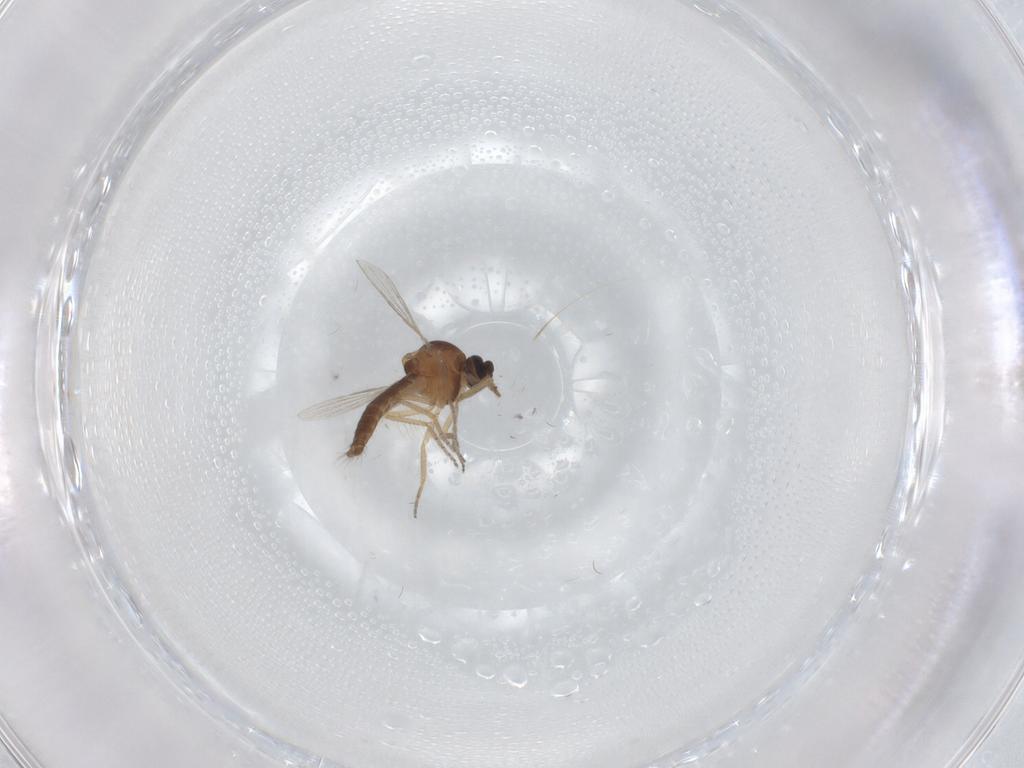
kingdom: Animalia
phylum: Arthropoda
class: Insecta
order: Diptera
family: Ceratopogonidae
